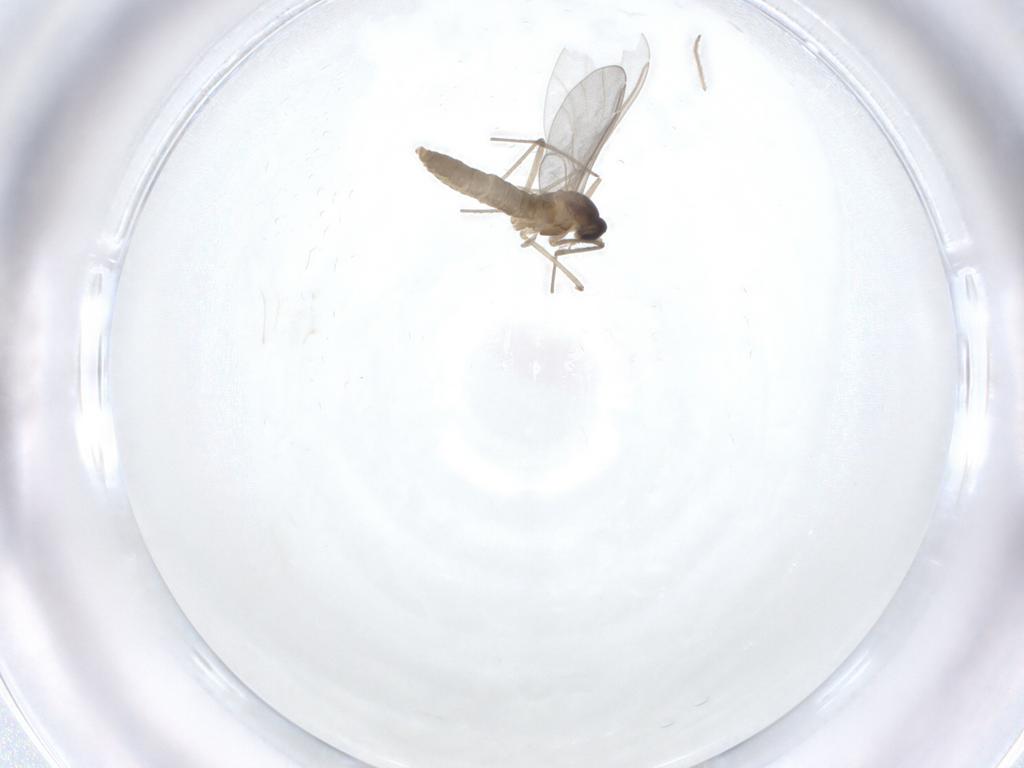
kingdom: Animalia
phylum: Arthropoda
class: Insecta
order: Diptera
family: Cecidomyiidae
